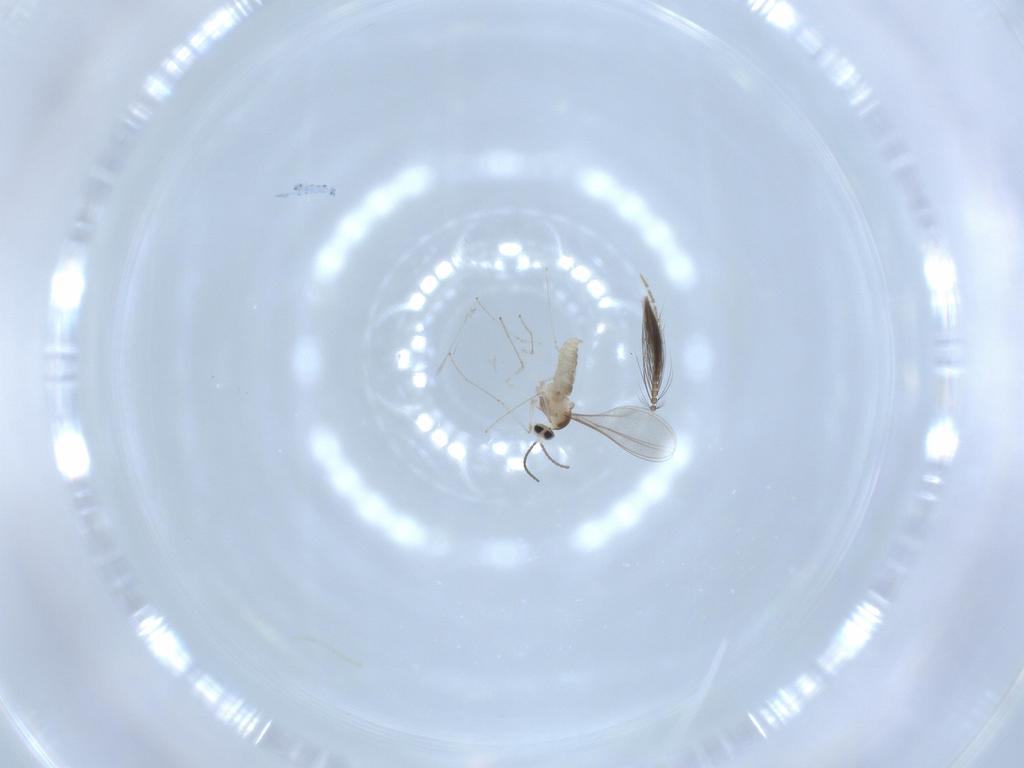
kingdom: Animalia
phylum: Arthropoda
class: Insecta
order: Diptera
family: Cecidomyiidae
